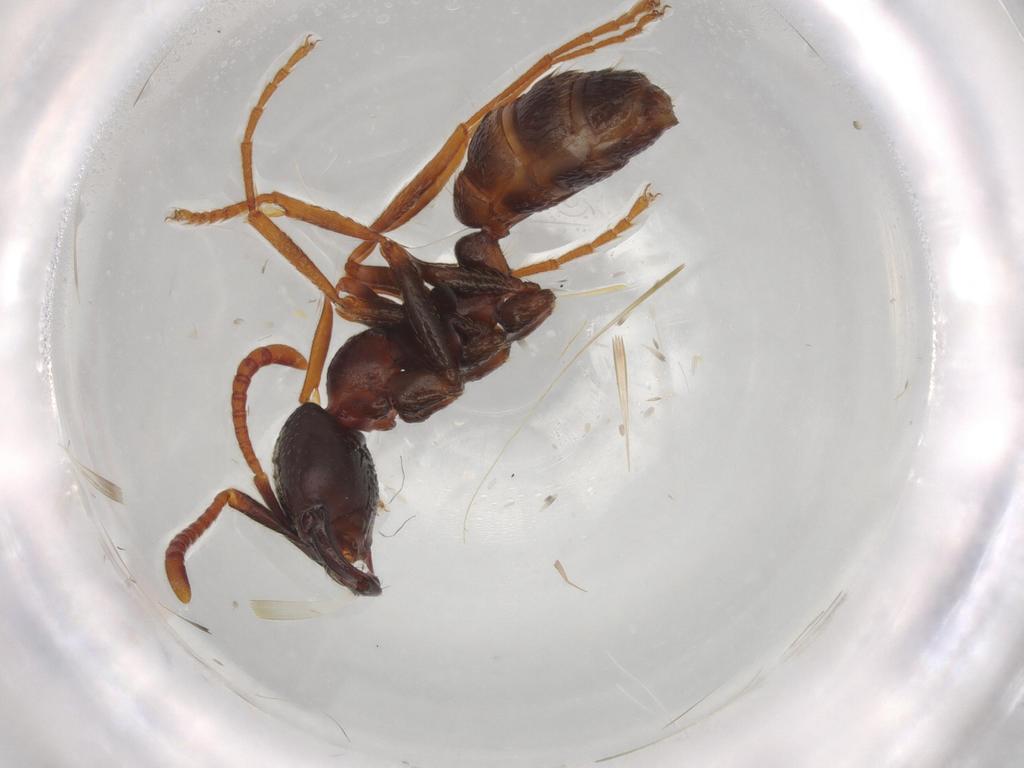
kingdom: Animalia
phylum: Arthropoda
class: Insecta
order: Hymenoptera
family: Formicidae
